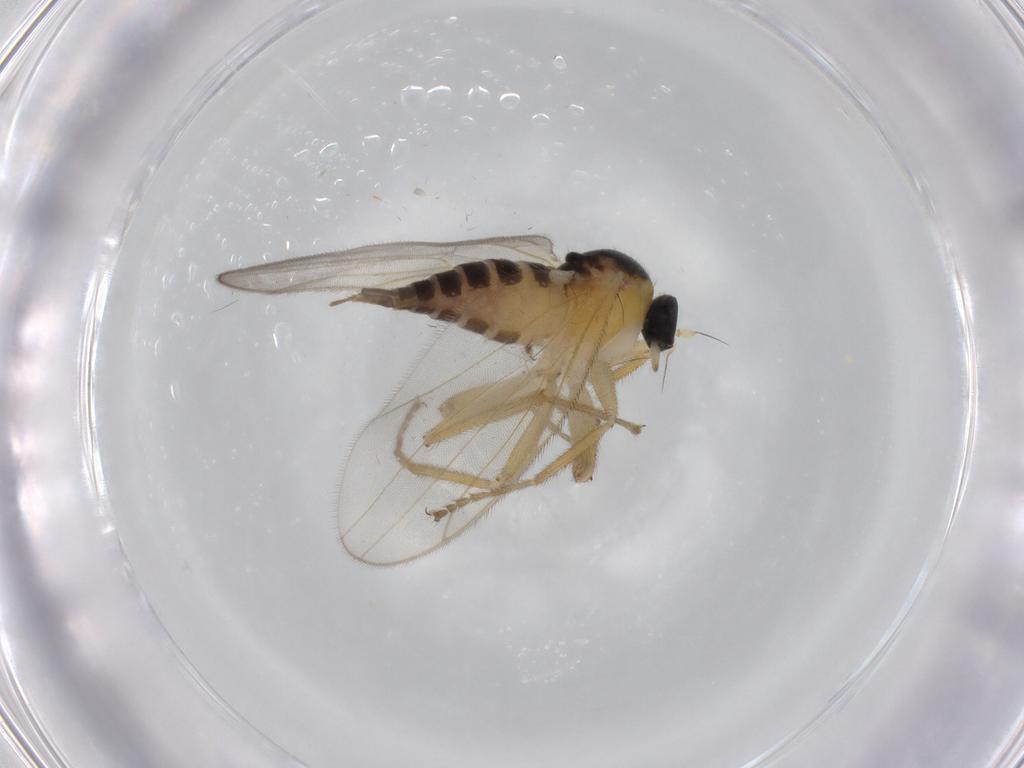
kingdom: Animalia
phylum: Arthropoda
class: Insecta
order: Diptera
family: Hybotidae
